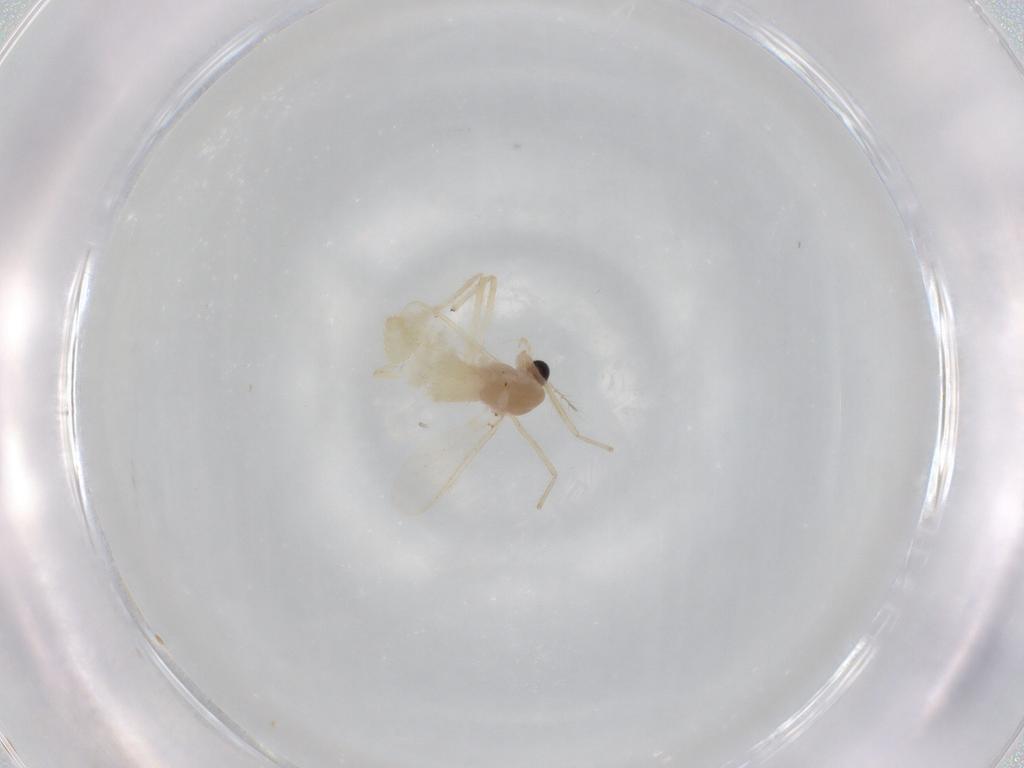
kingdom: Animalia
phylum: Arthropoda
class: Insecta
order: Diptera
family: Chironomidae
